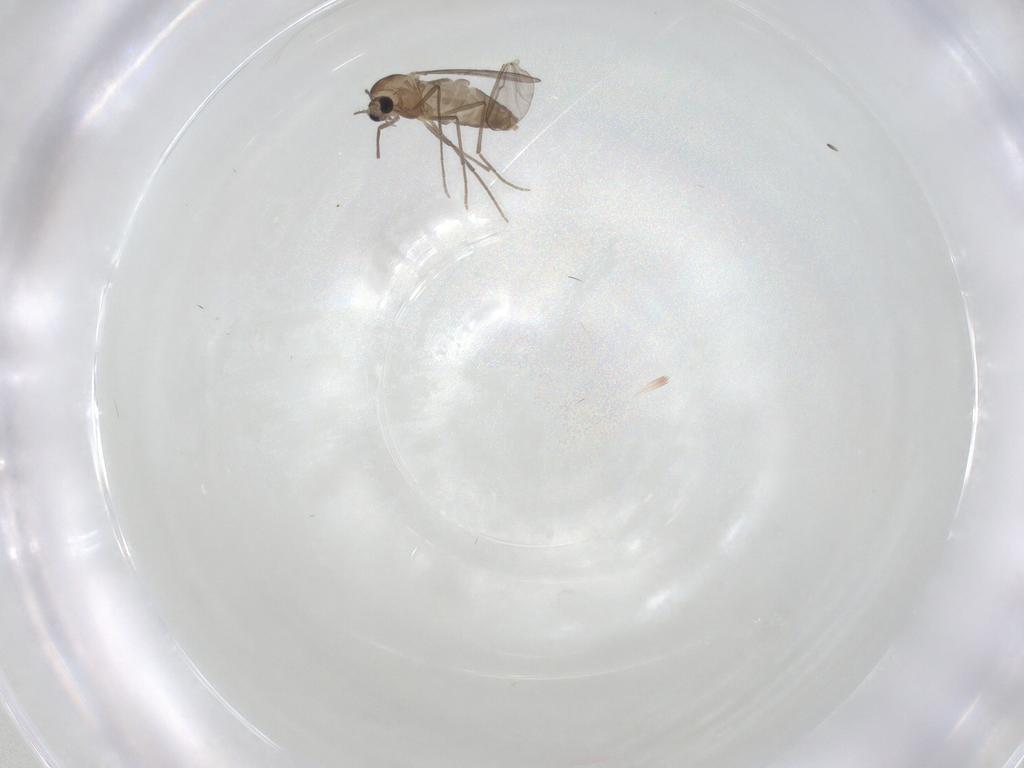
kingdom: Animalia
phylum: Arthropoda
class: Insecta
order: Diptera
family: Chironomidae
